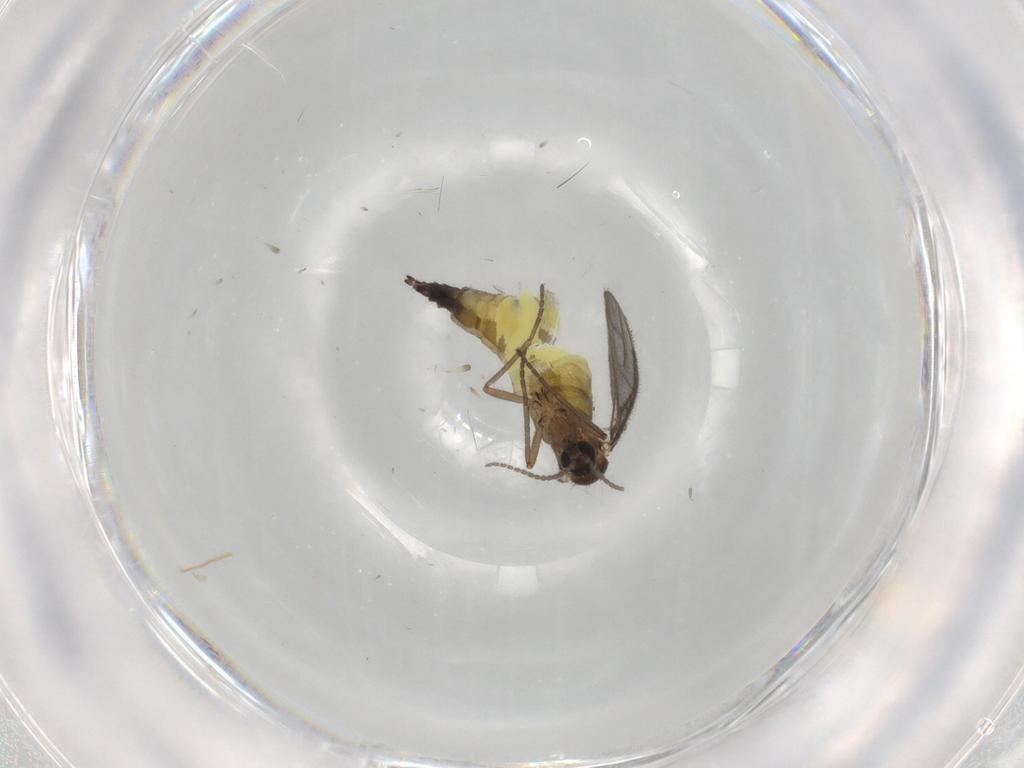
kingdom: Animalia
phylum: Arthropoda
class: Insecta
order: Diptera
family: Sciaridae
